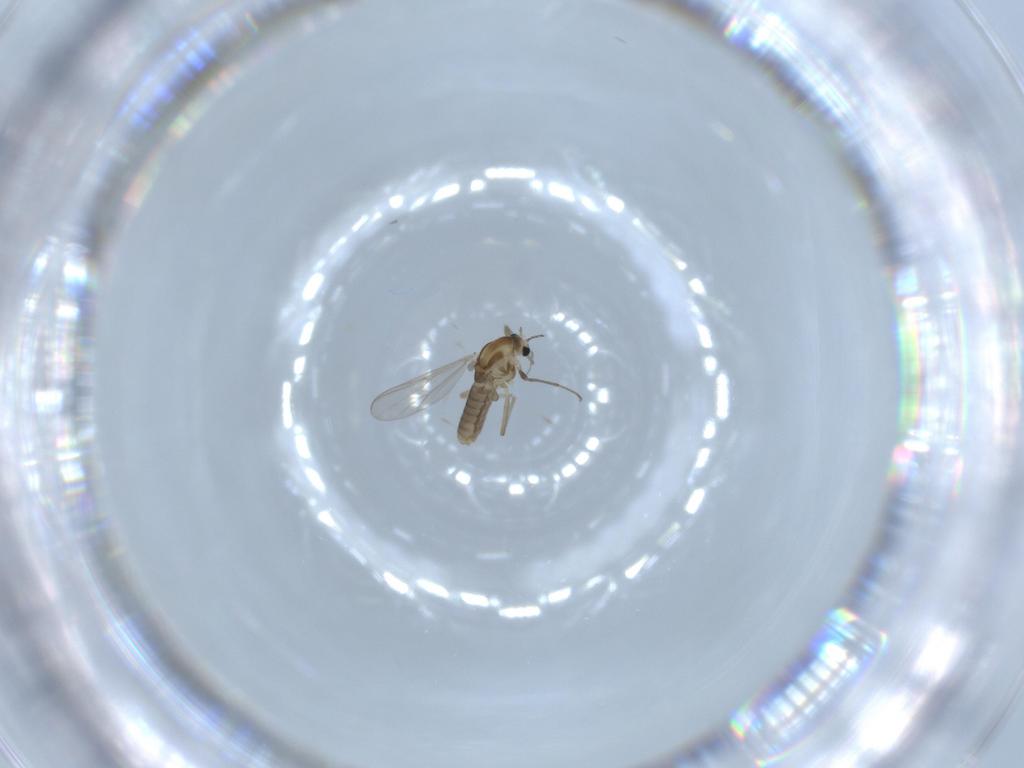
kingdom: Animalia
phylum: Arthropoda
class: Insecta
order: Diptera
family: Chironomidae
